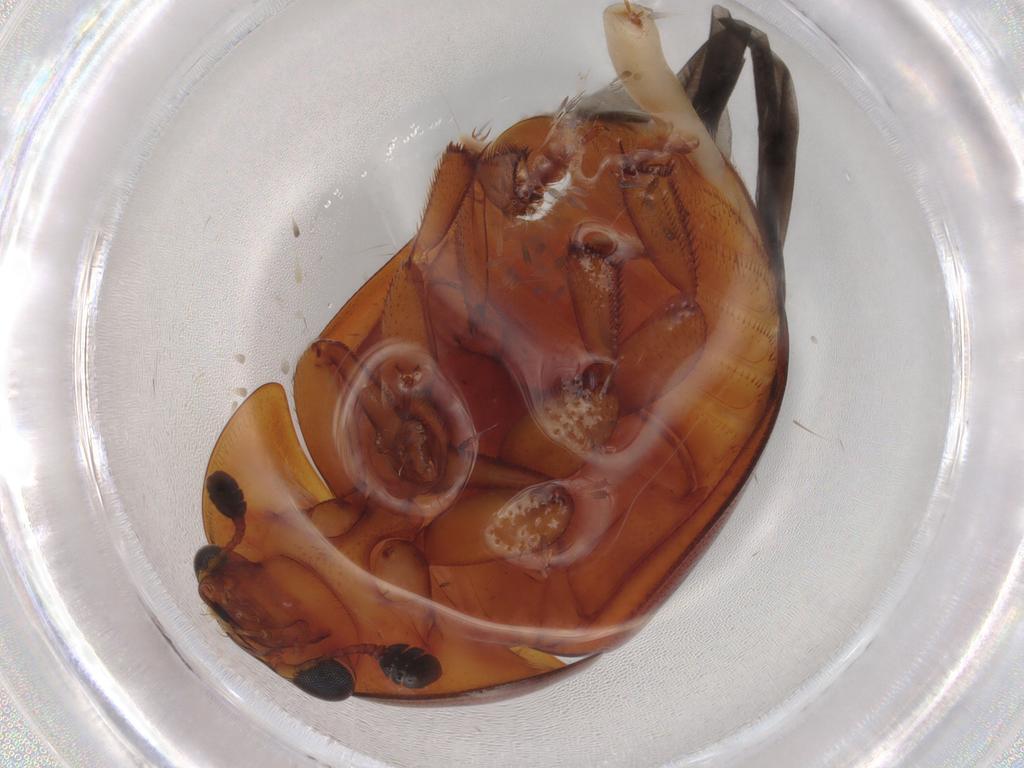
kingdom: Animalia
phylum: Arthropoda
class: Insecta
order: Coleoptera
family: Nitidulidae
